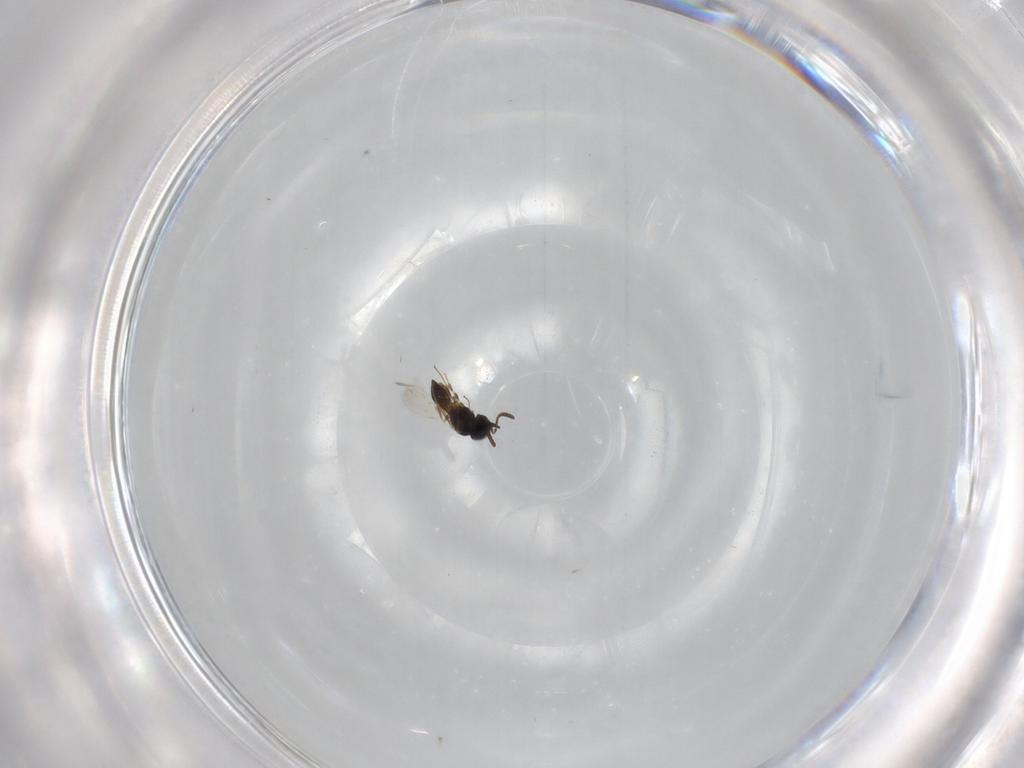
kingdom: Animalia
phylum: Arthropoda
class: Insecta
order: Hymenoptera
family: Scelionidae
